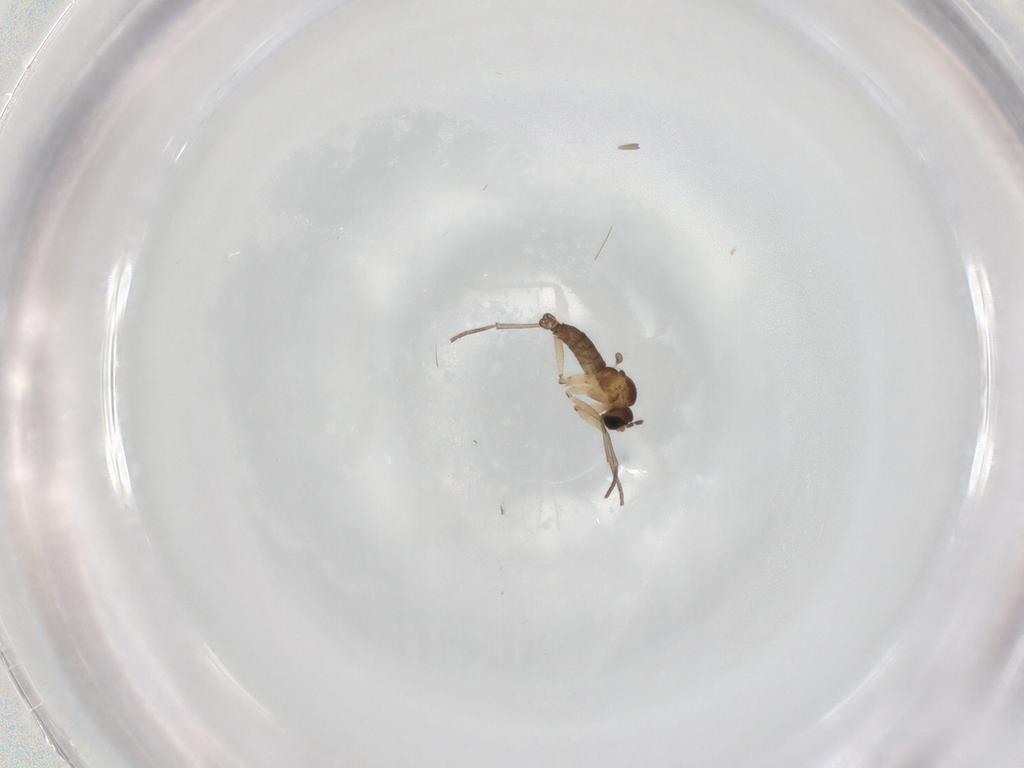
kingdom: Animalia
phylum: Arthropoda
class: Insecta
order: Diptera
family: Sciaridae
